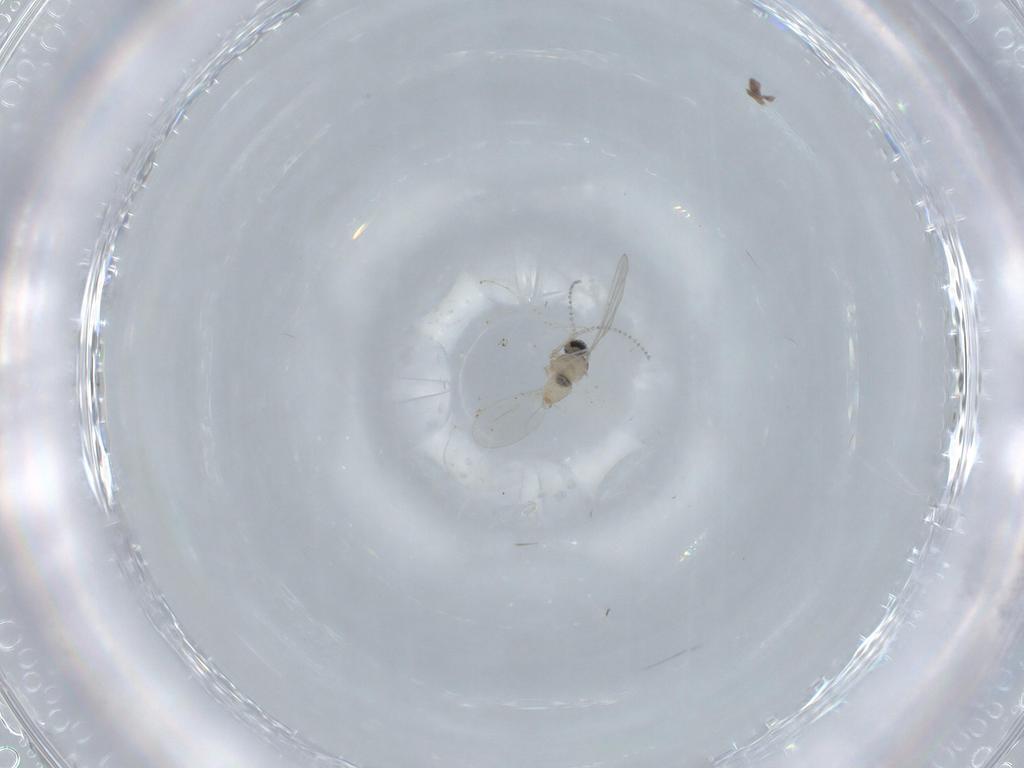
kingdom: Animalia
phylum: Arthropoda
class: Insecta
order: Diptera
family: Cecidomyiidae
